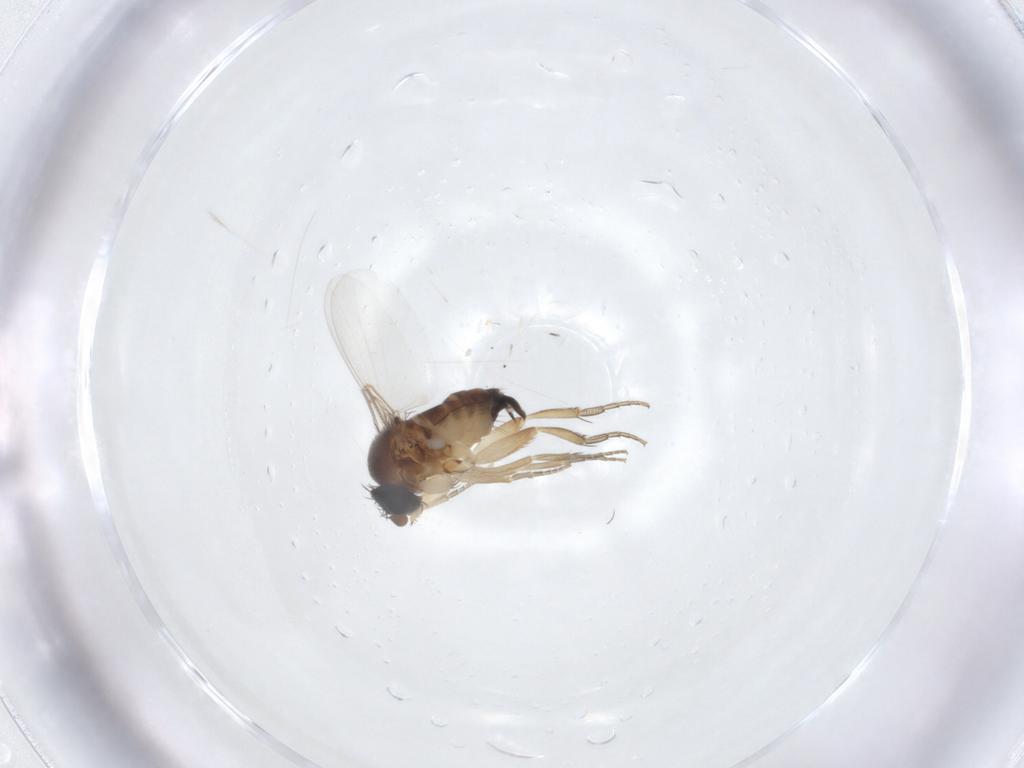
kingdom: Animalia
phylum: Arthropoda
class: Insecta
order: Diptera
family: Phoridae
